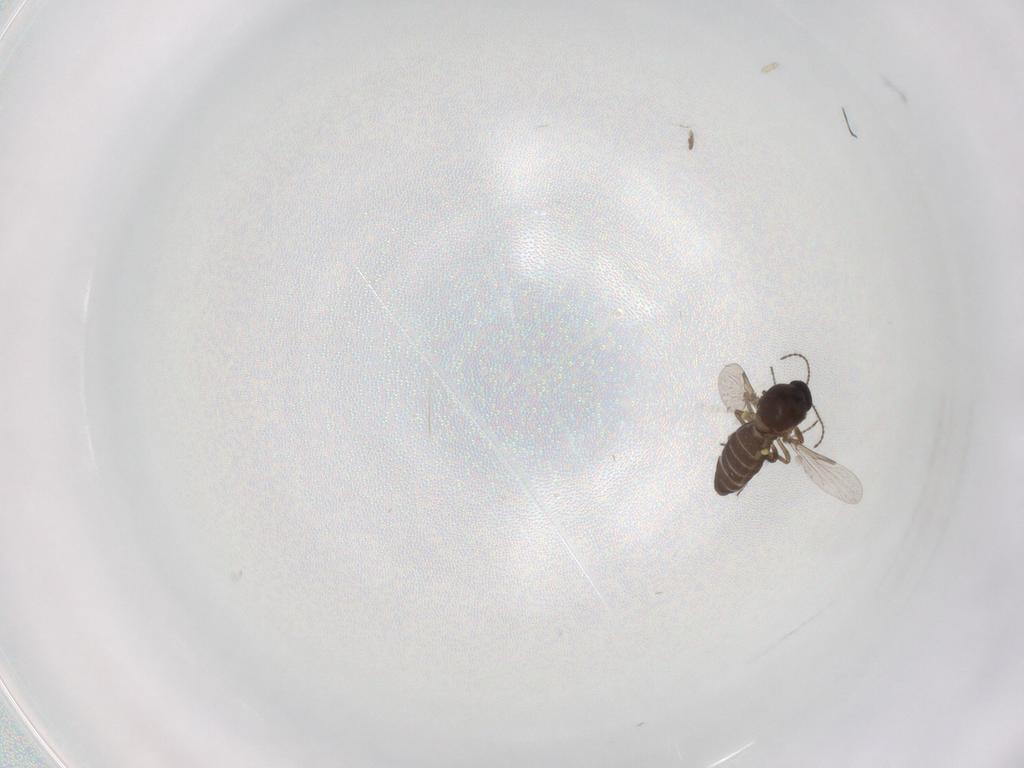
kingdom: Animalia
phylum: Arthropoda
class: Insecta
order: Diptera
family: Ceratopogonidae
